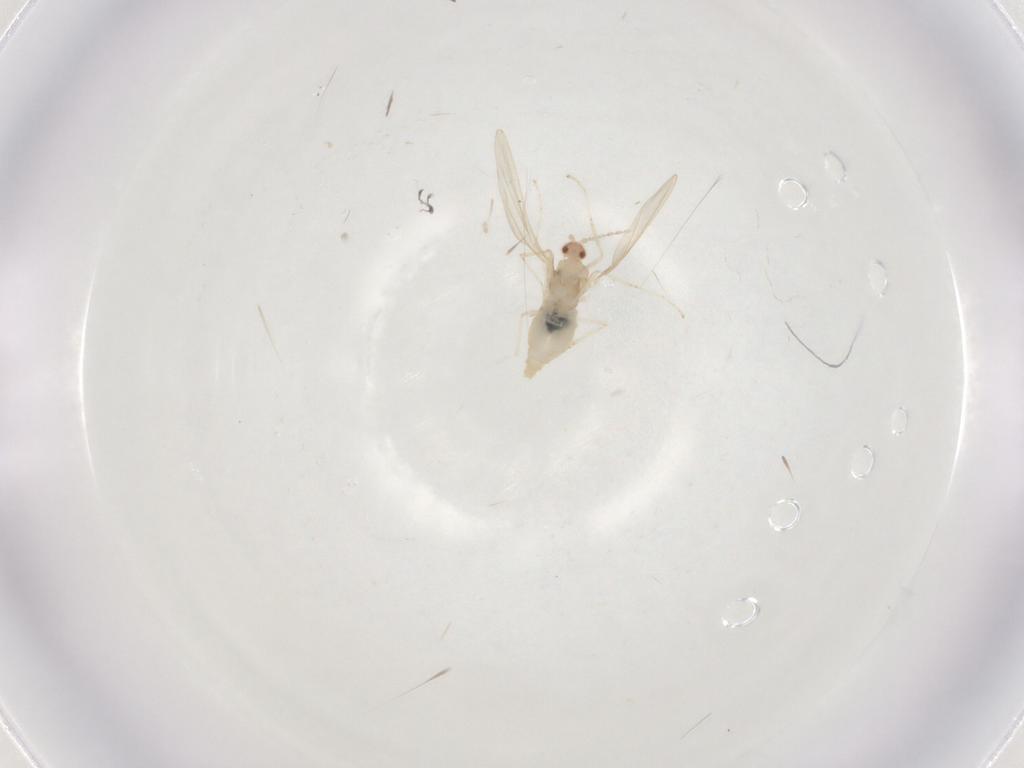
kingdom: Animalia
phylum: Arthropoda
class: Insecta
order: Diptera
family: Cecidomyiidae
